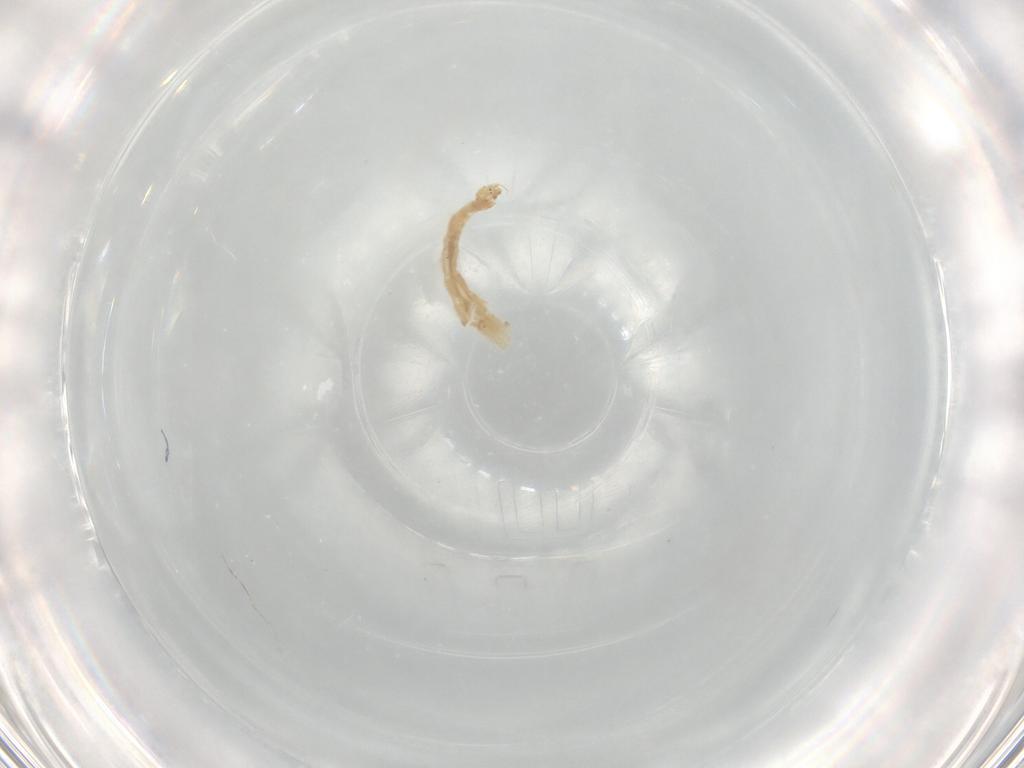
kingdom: Animalia
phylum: Arthropoda
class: Insecta
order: Diptera
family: Chironomidae
